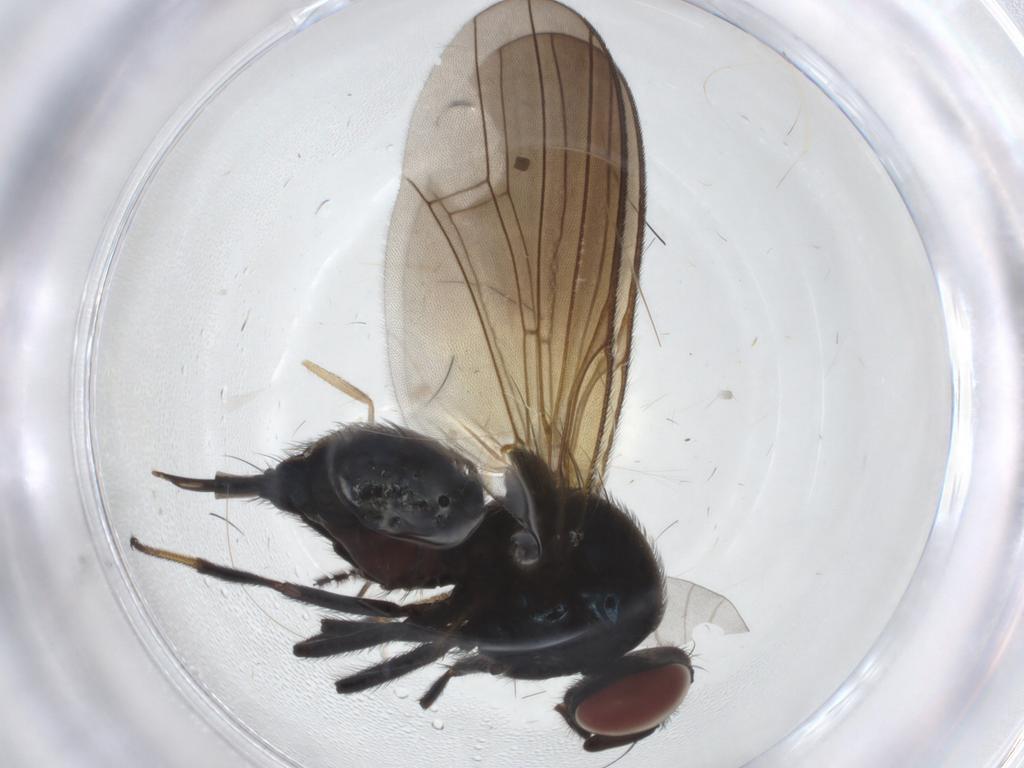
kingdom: Animalia
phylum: Arthropoda
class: Insecta
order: Diptera
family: Lonchaeidae
